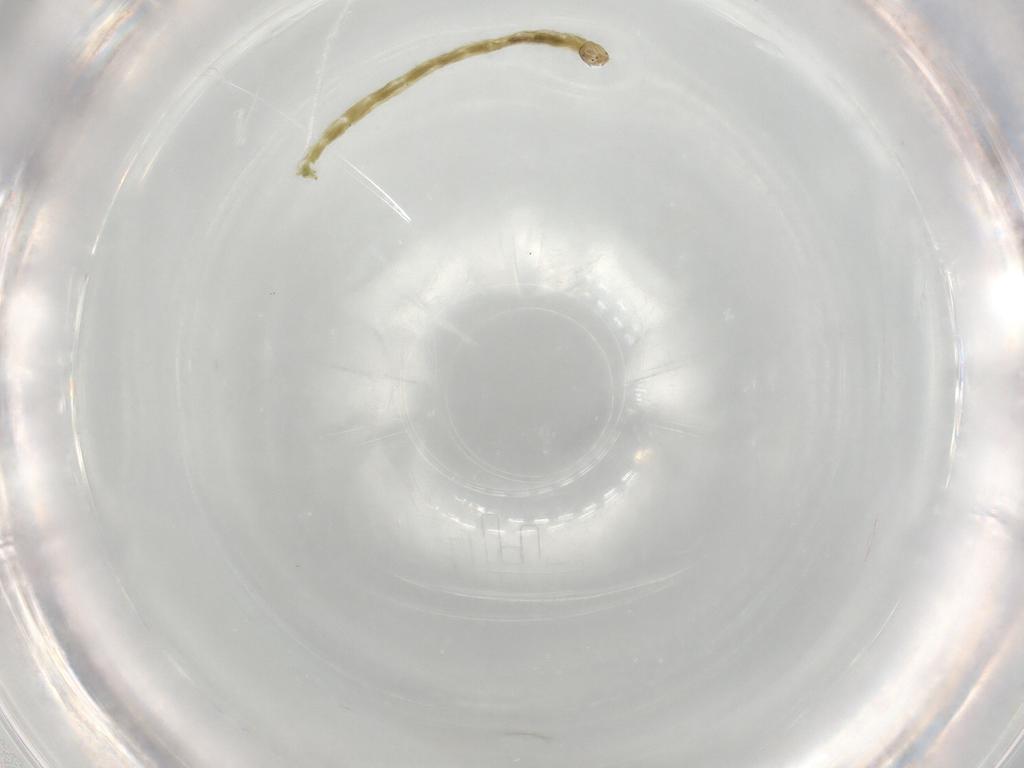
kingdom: Animalia
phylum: Arthropoda
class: Insecta
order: Diptera
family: Chironomidae
